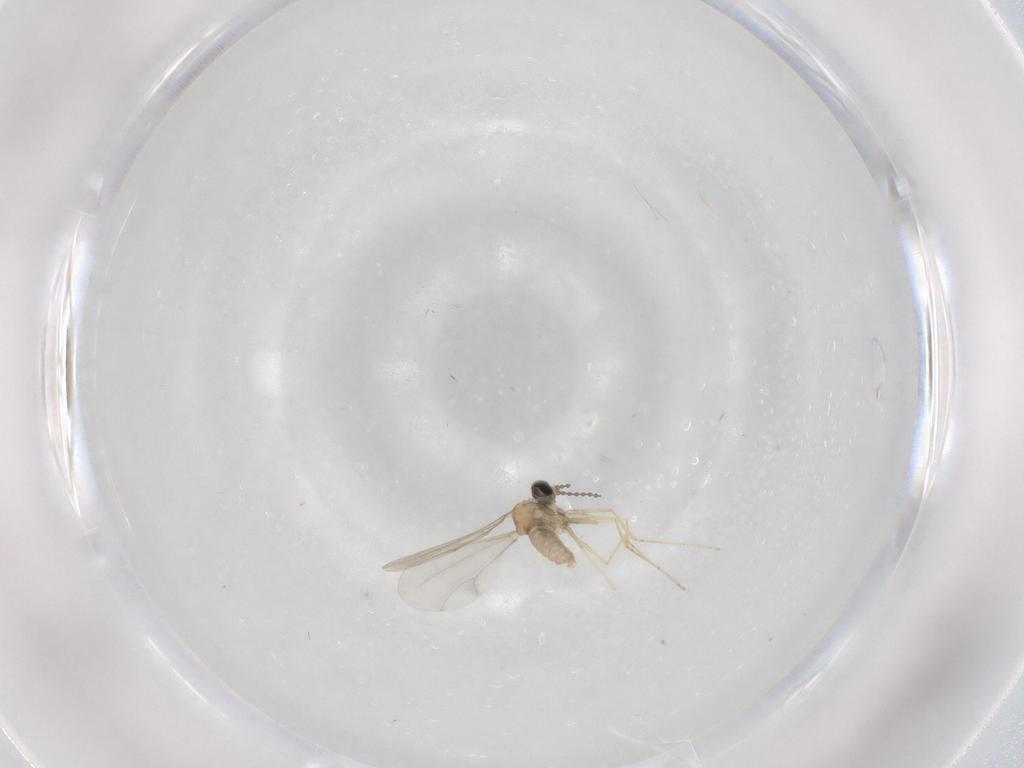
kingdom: Animalia
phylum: Arthropoda
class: Insecta
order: Diptera
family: Cecidomyiidae
